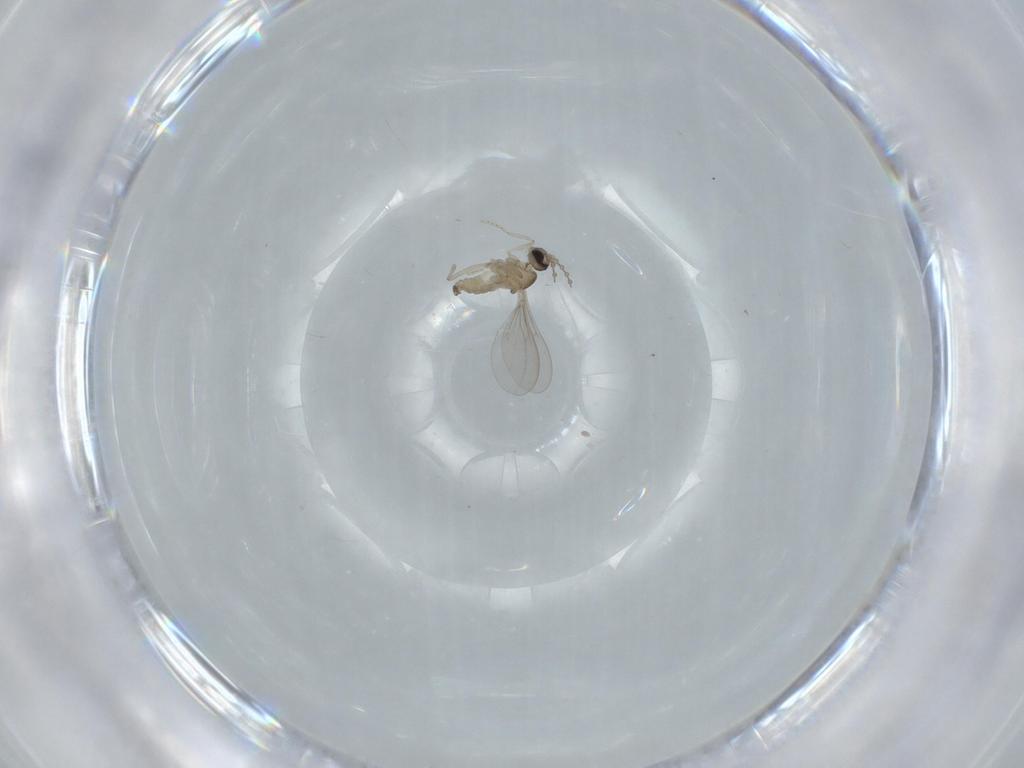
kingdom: Animalia
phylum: Arthropoda
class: Insecta
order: Diptera
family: Cecidomyiidae
